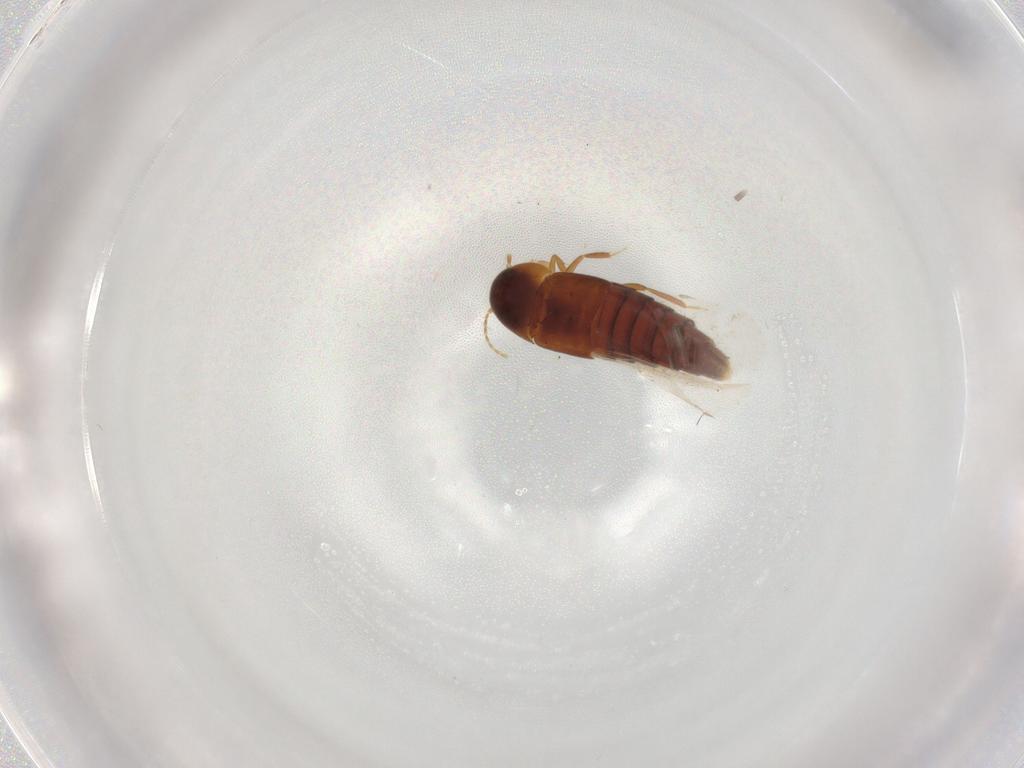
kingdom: Animalia
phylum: Arthropoda
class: Insecta
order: Coleoptera
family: Staphylinidae
